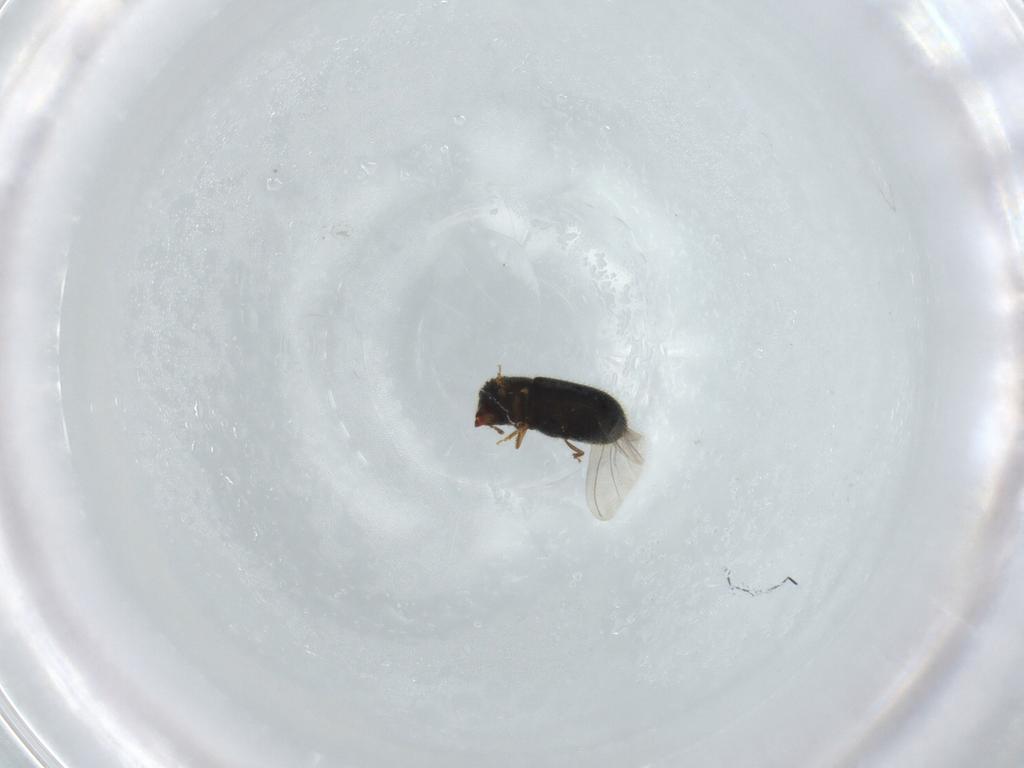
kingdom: Animalia
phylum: Arthropoda
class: Insecta
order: Coleoptera
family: Curculionidae
